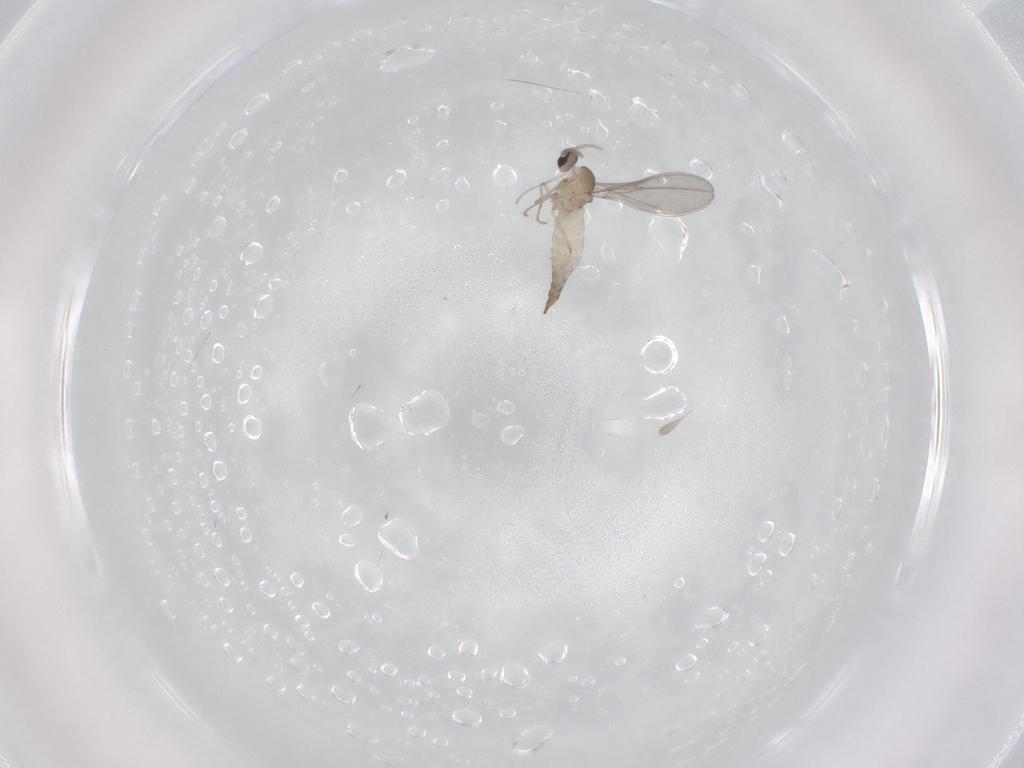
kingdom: Animalia
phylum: Arthropoda
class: Insecta
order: Diptera
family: Cecidomyiidae
